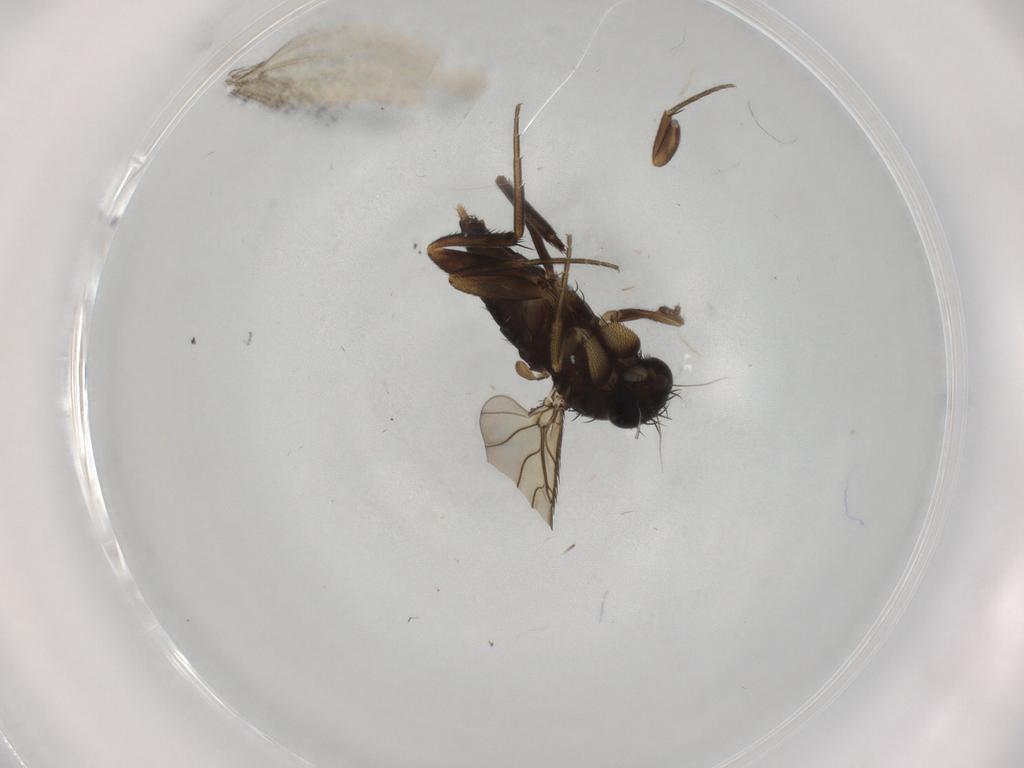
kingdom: Animalia
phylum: Arthropoda
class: Insecta
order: Diptera
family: Phoridae
